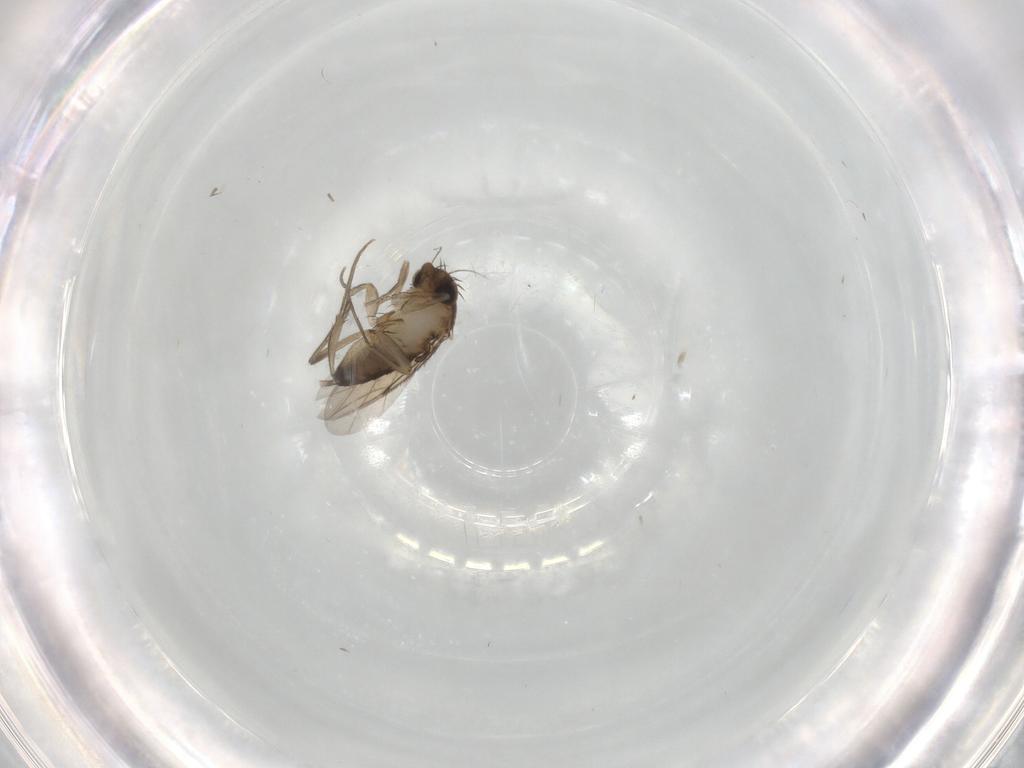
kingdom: Animalia
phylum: Arthropoda
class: Insecta
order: Diptera
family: Phoridae
